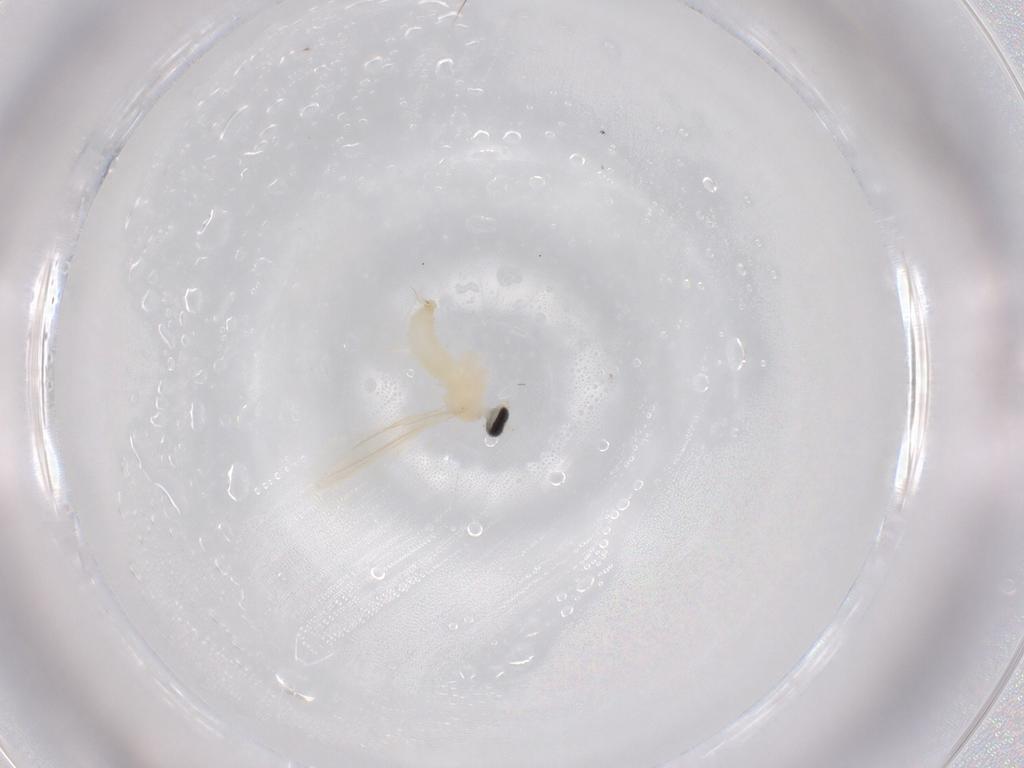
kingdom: Animalia
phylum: Arthropoda
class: Insecta
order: Diptera
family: Cecidomyiidae
